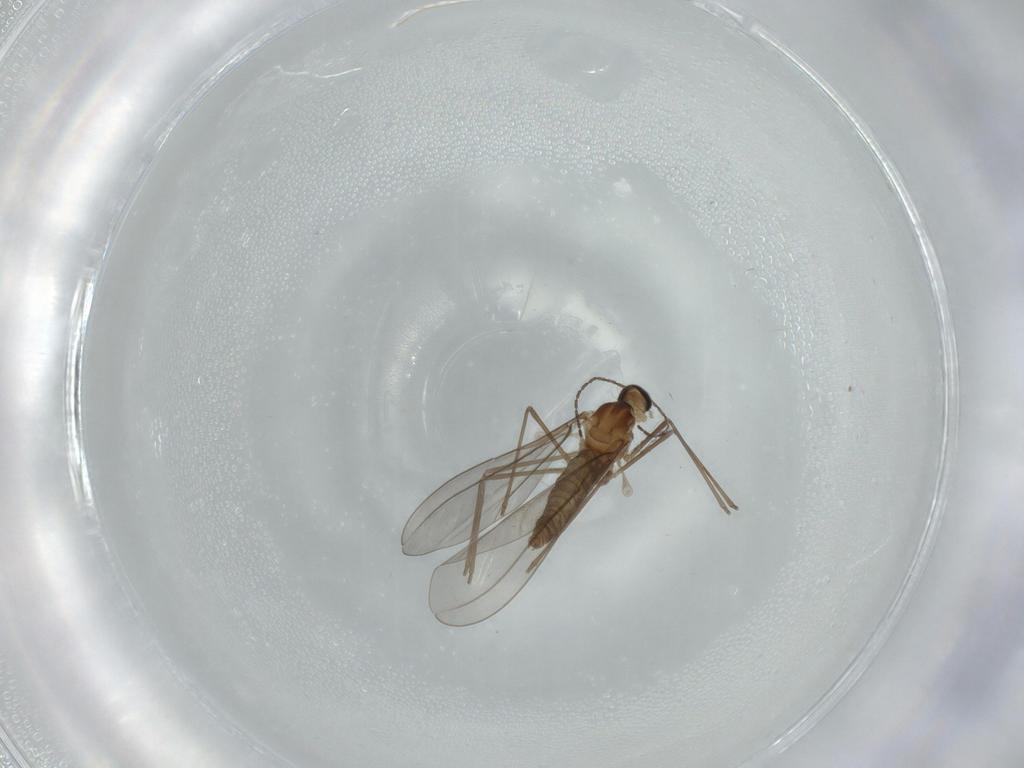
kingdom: Animalia
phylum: Arthropoda
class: Insecta
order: Diptera
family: Cecidomyiidae
